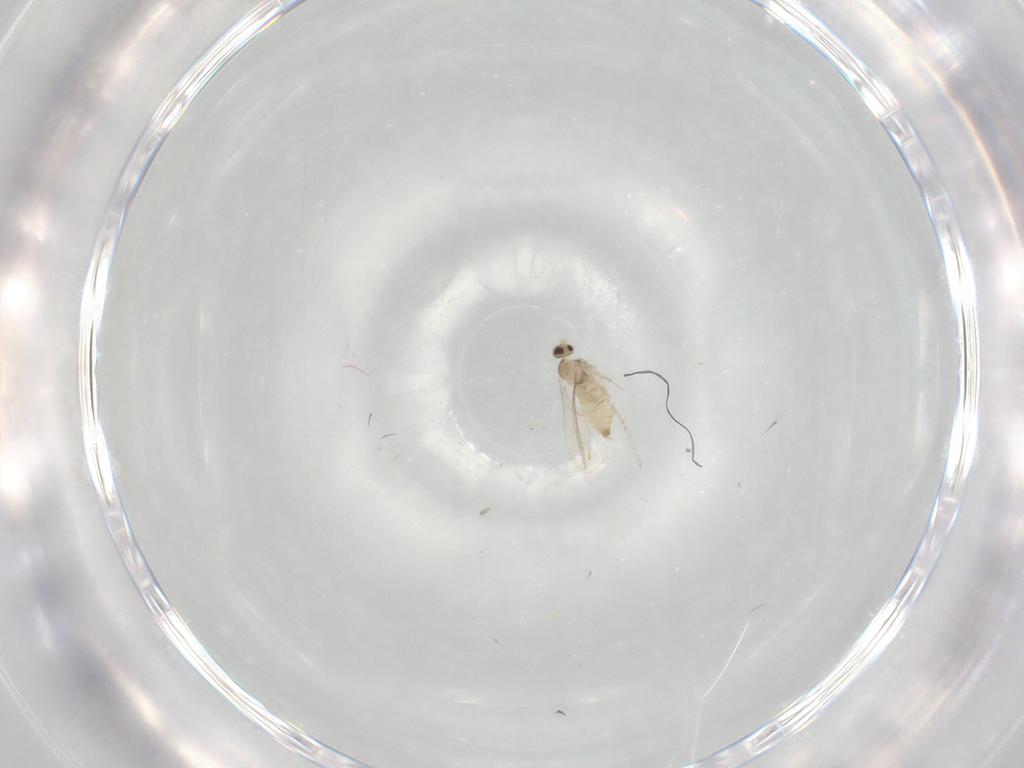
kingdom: Animalia
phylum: Arthropoda
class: Insecta
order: Diptera
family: Cecidomyiidae
